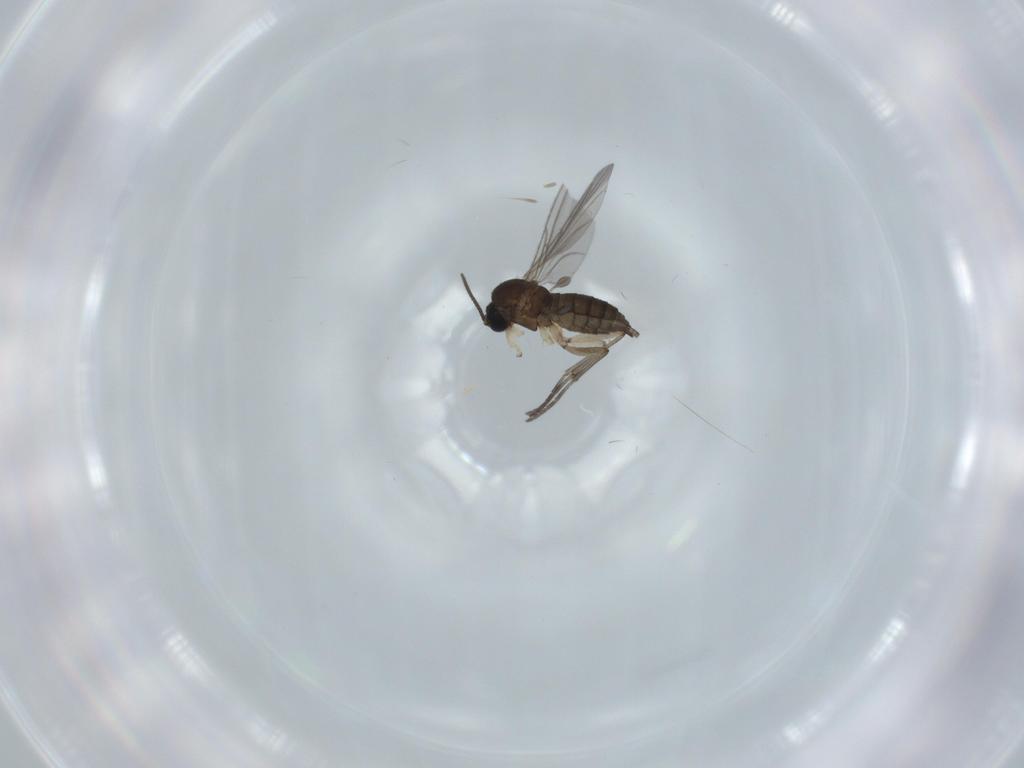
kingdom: Animalia
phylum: Arthropoda
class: Insecta
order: Diptera
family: Sciaridae
